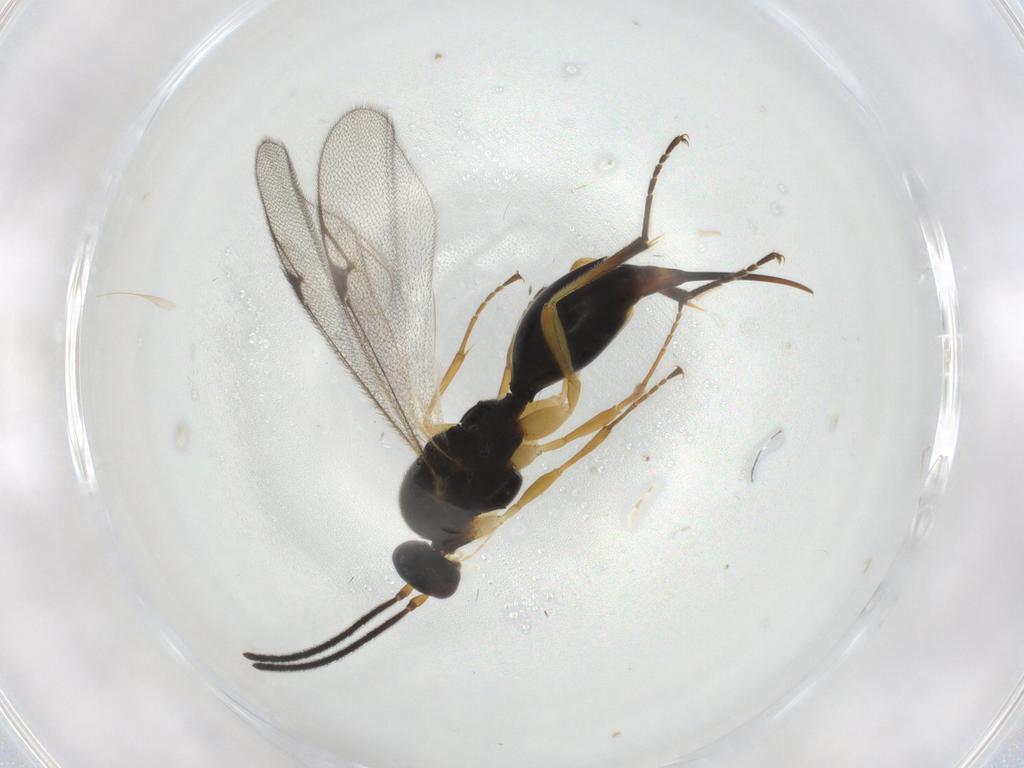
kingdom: Animalia
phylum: Arthropoda
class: Insecta
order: Hymenoptera
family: Proctotrupidae
